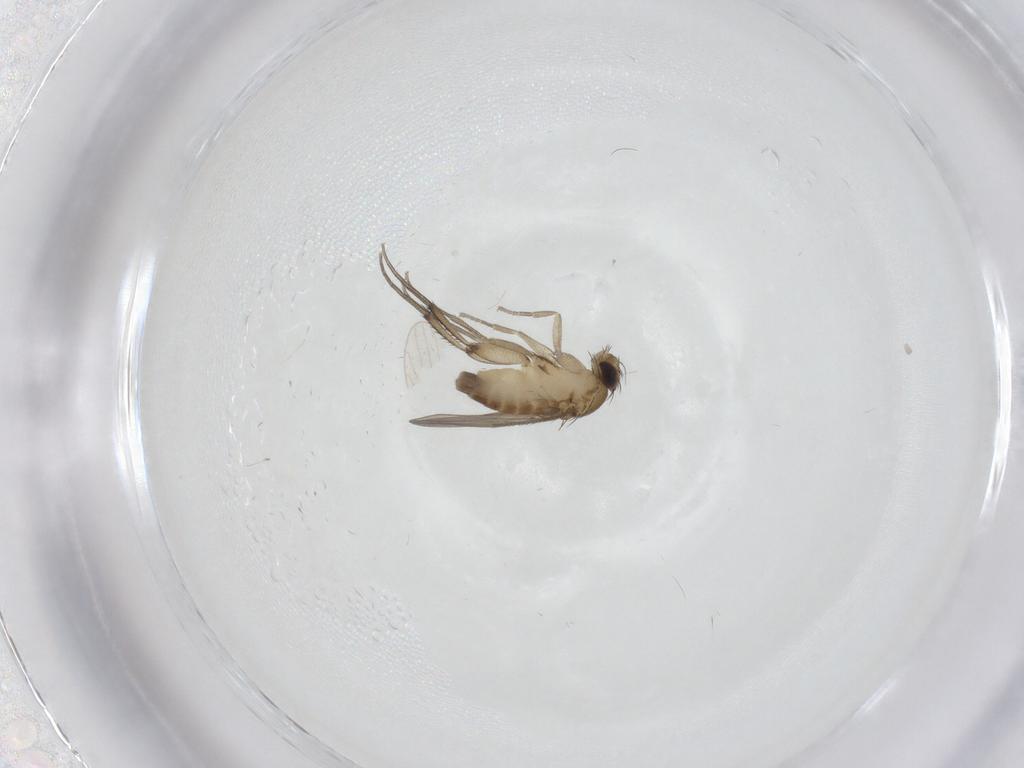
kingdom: Animalia
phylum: Arthropoda
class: Insecta
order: Diptera
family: Phoridae
